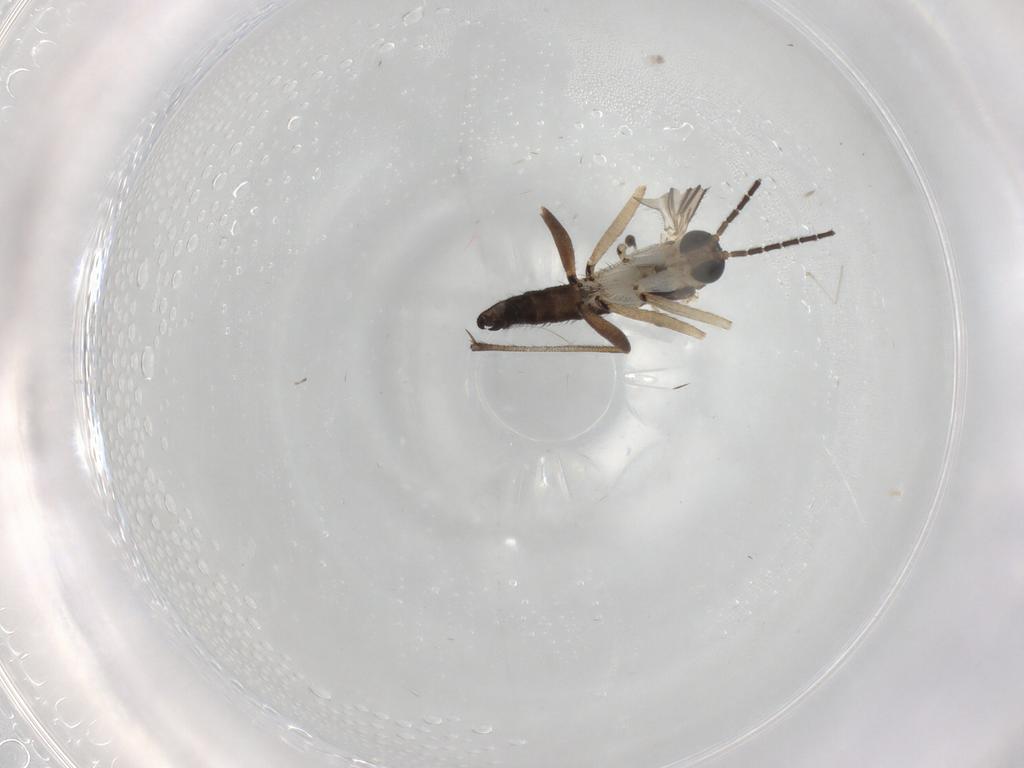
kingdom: Animalia
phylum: Arthropoda
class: Insecta
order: Diptera
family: Sciaridae
